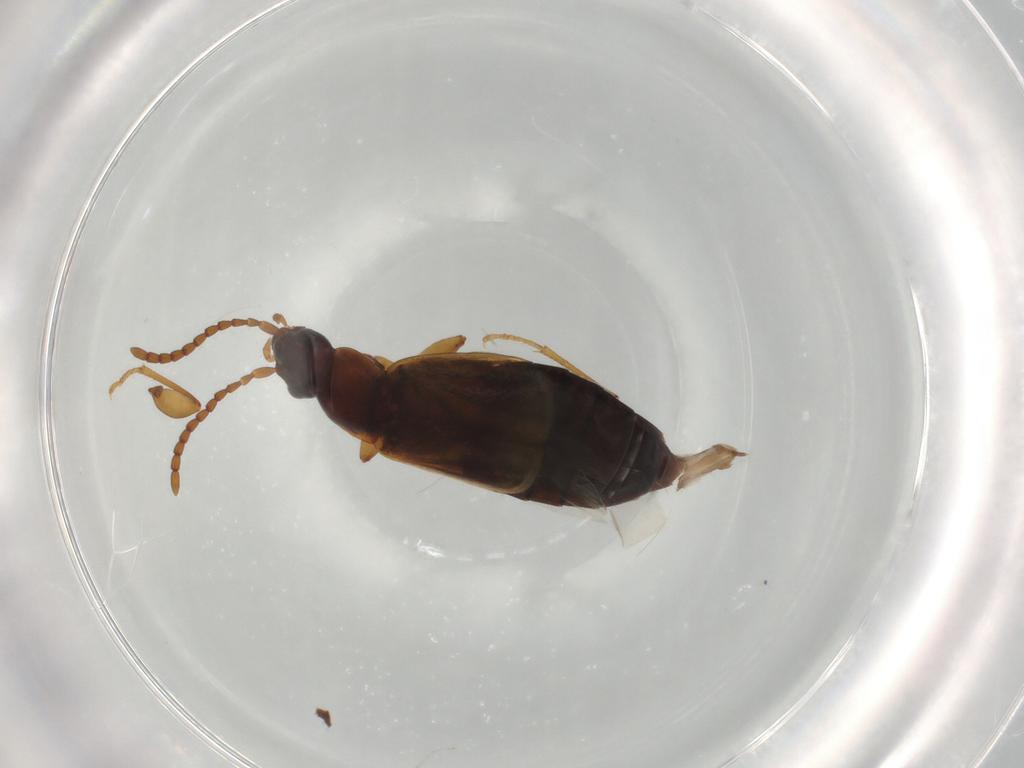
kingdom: Animalia
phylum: Arthropoda
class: Insecta
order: Coleoptera
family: Staphylinidae
